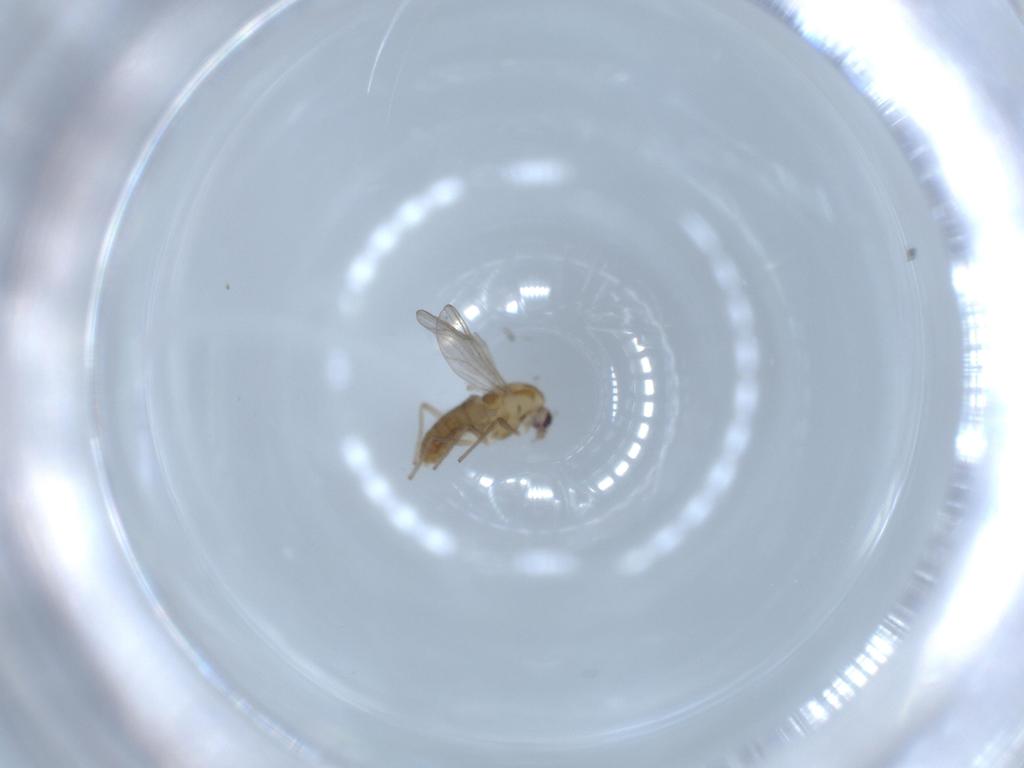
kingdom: Animalia
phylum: Arthropoda
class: Insecta
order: Diptera
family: Chironomidae
